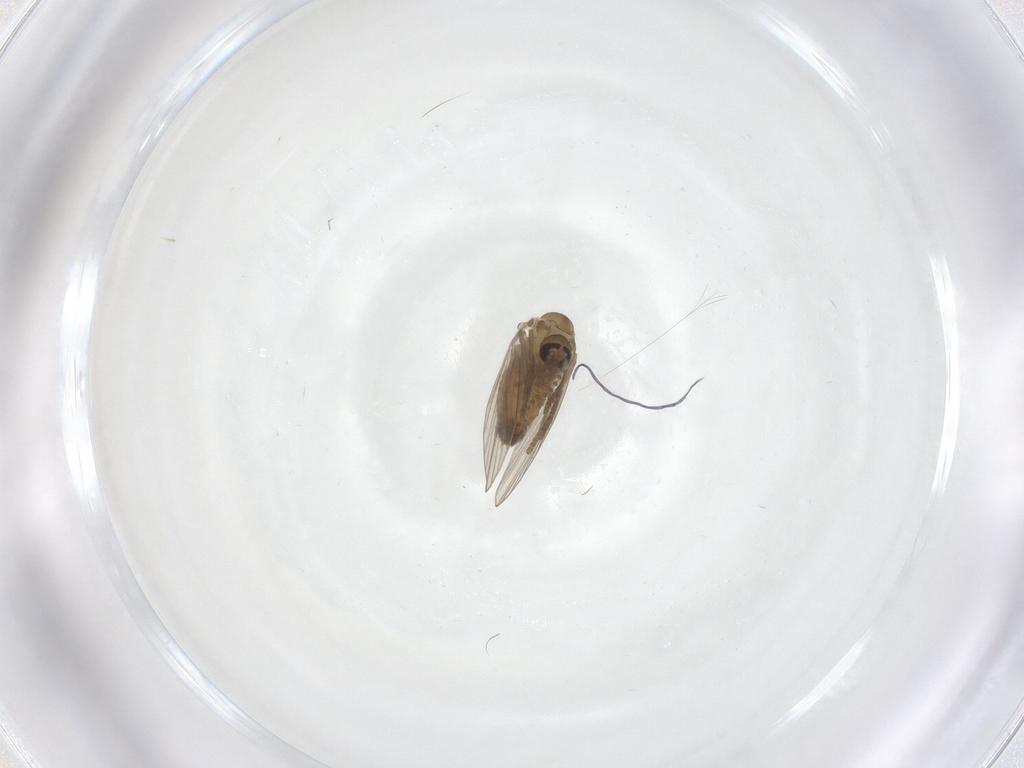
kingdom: Animalia
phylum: Arthropoda
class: Insecta
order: Diptera
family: Psychodidae
